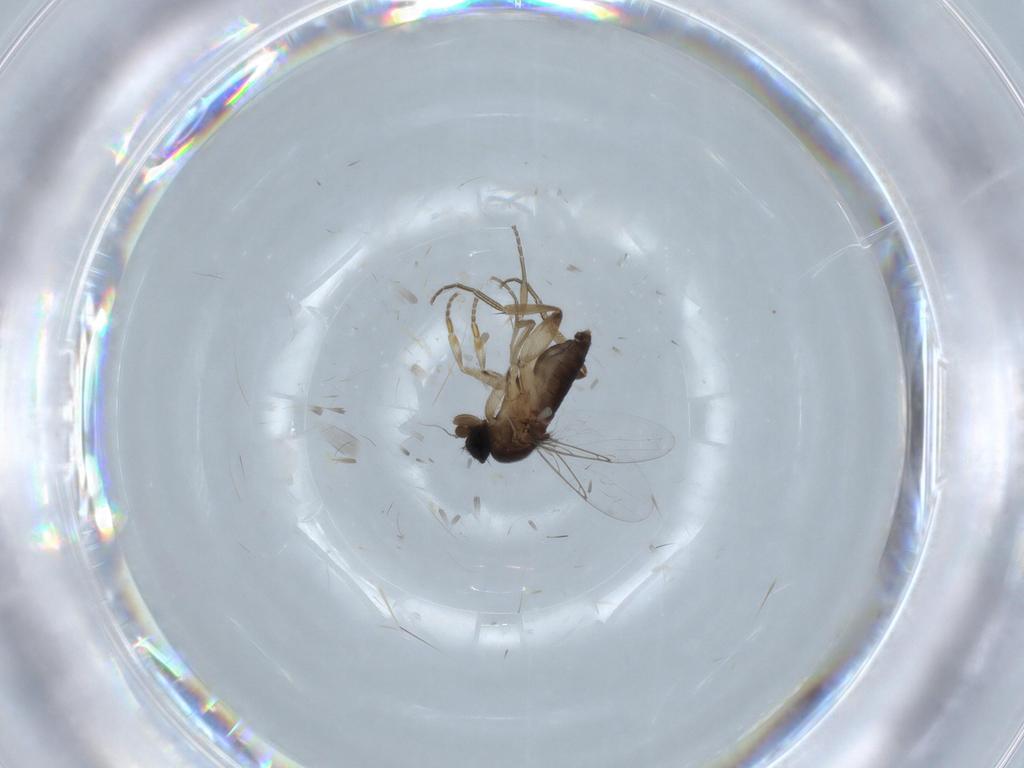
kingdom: Animalia
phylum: Arthropoda
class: Insecta
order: Diptera
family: Phoridae
